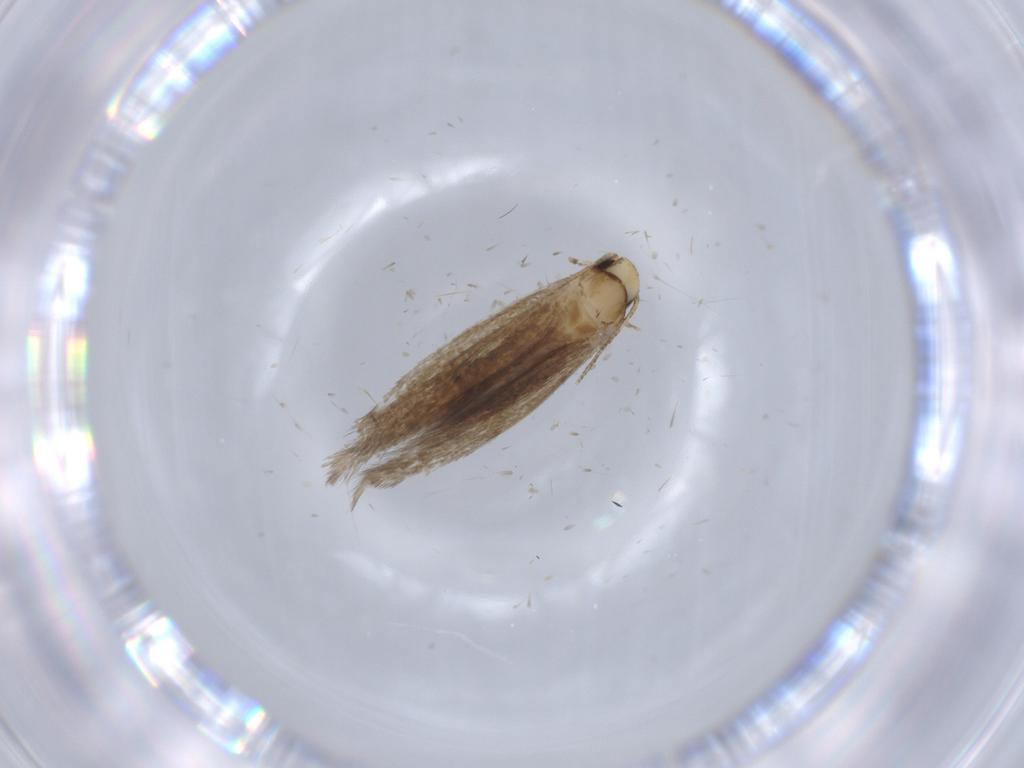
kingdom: Animalia
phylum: Arthropoda
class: Insecta
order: Lepidoptera
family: Tineidae
